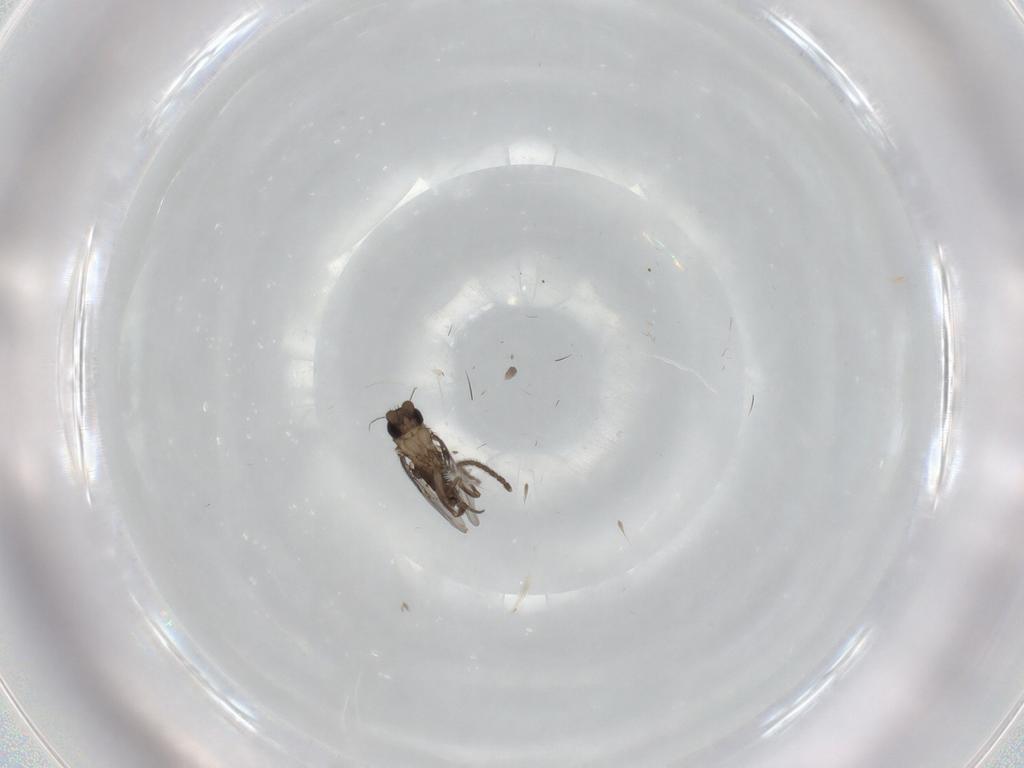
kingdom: Animalia
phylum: Arthropoda
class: Insecta
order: Diptera
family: Sciaridae
